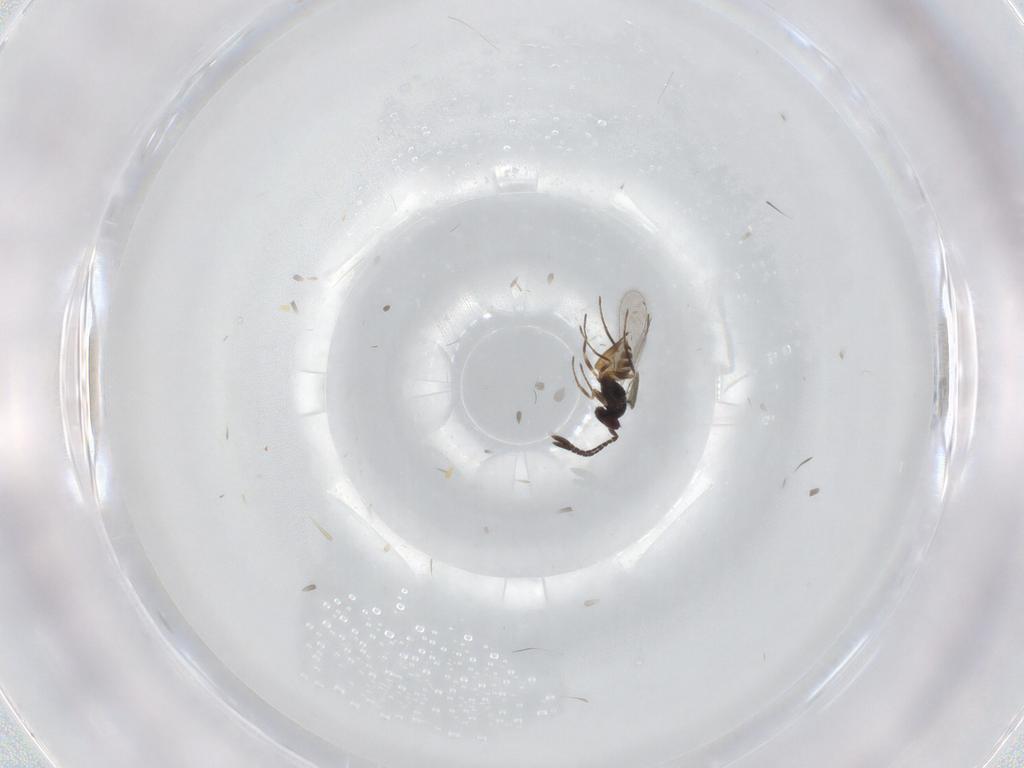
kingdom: Animalia
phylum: Arthropoda
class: Insecta
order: Hymenoptera
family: Mymaridae
